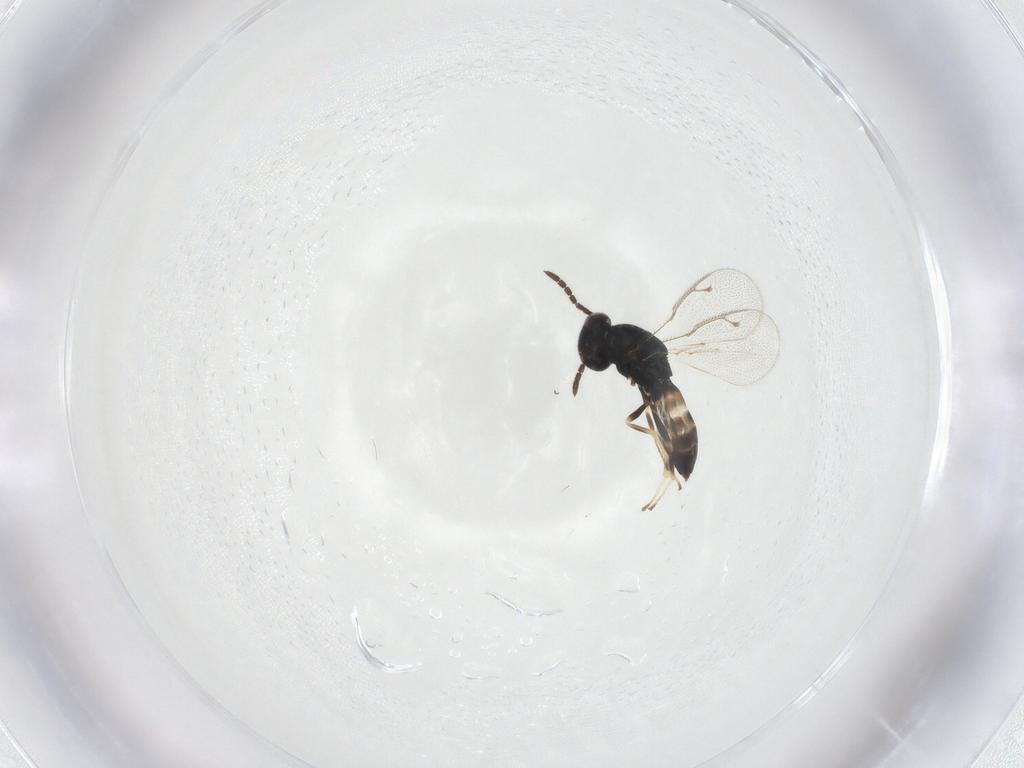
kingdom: Animalia
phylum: Arthropoda
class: Insecta
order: Hymenoptera
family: Pteromalidae
